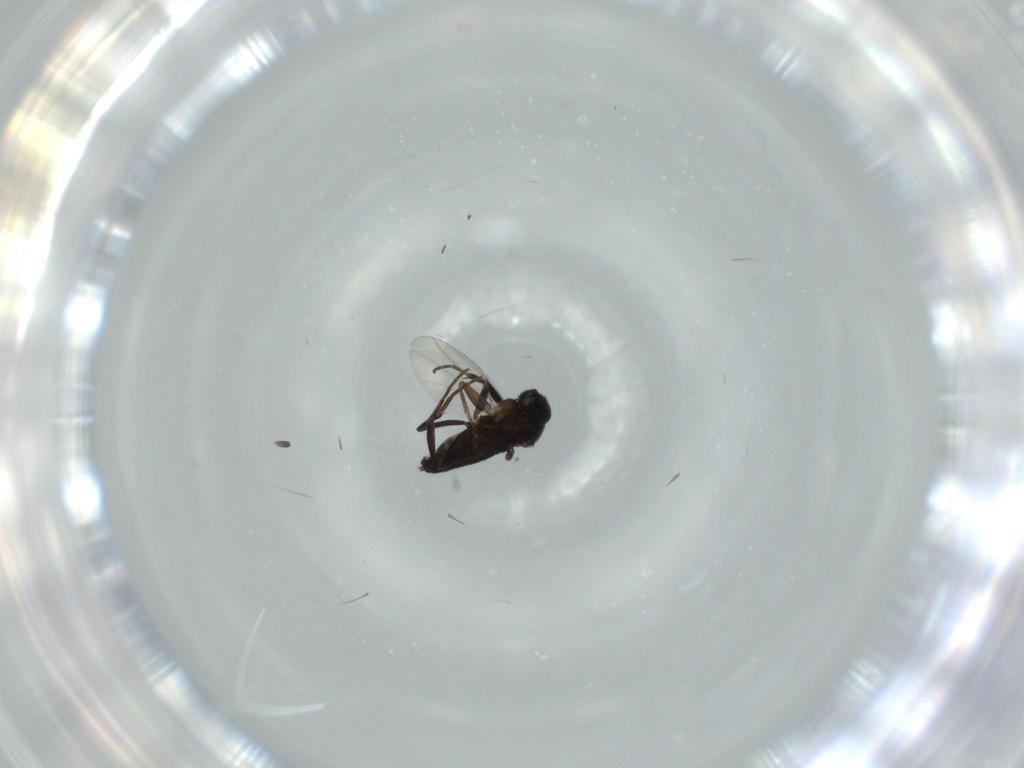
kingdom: Animalia
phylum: Arthropoda
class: Insecta
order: Diptera
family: Phoridae
